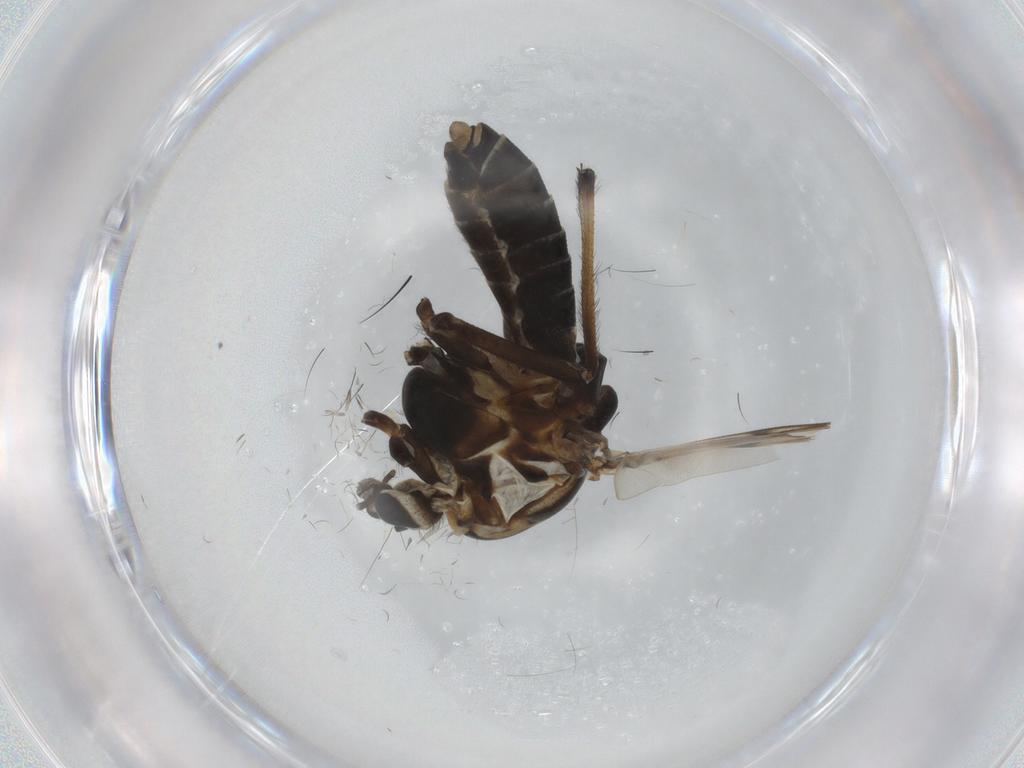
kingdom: Animalia
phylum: Arthropoda
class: Insecta
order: Diptera
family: Chironomidae
